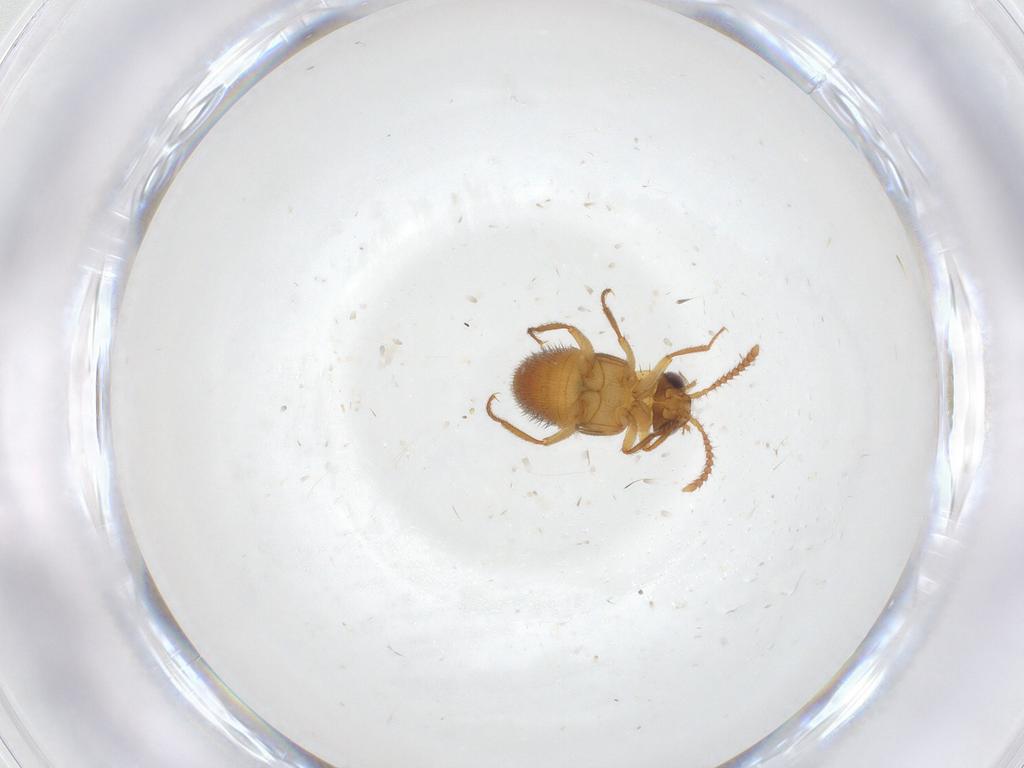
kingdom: Animalia
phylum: Arthropoda
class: Insecta
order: Coleoptera
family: Staphylinidae
